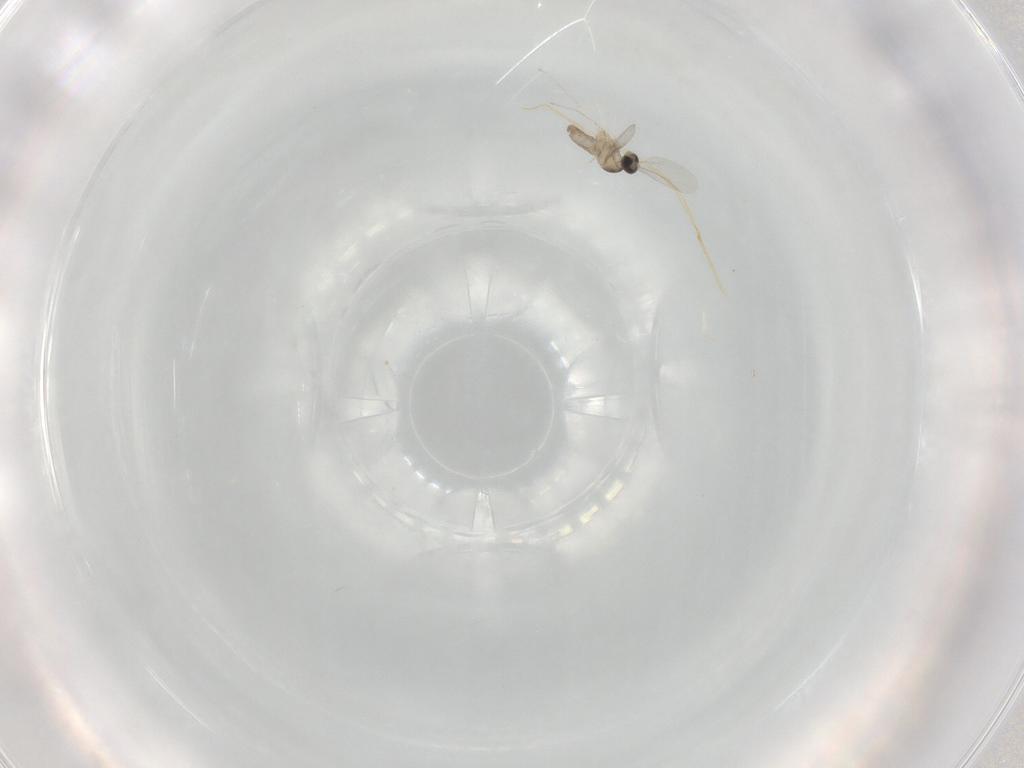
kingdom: Animalia
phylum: Arthropoda
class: Insecta
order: Diptera
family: Cecidomyiidae
